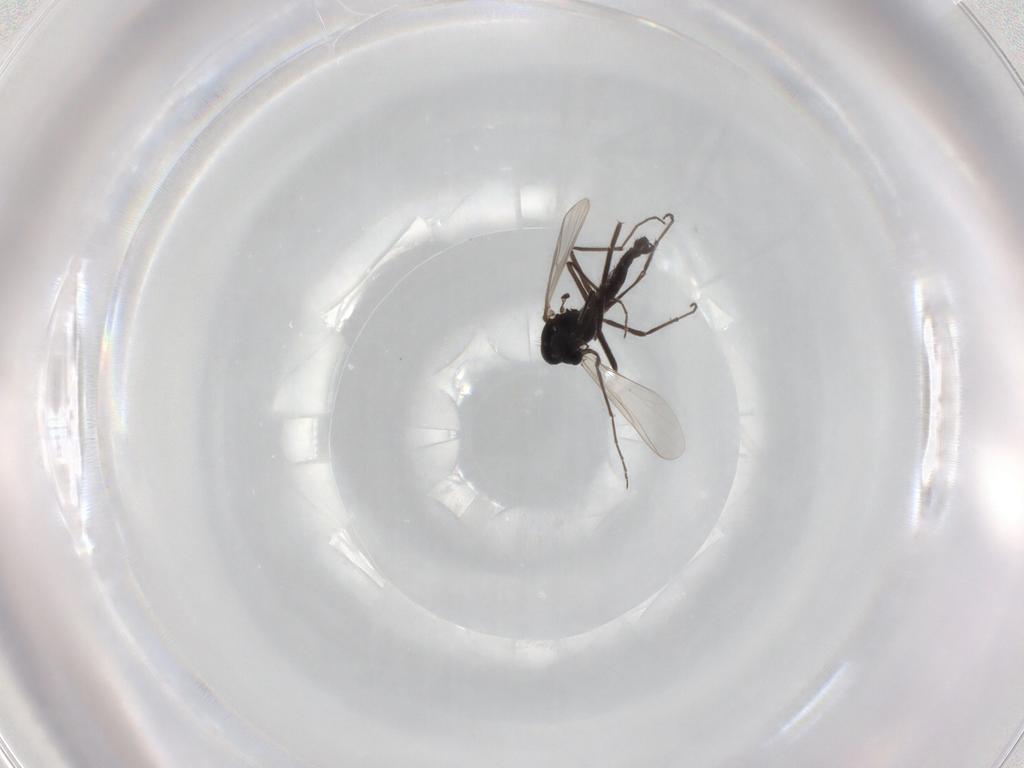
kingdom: Animalia
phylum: Arthropoda
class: Insecta
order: Diptera
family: Chironomidae
